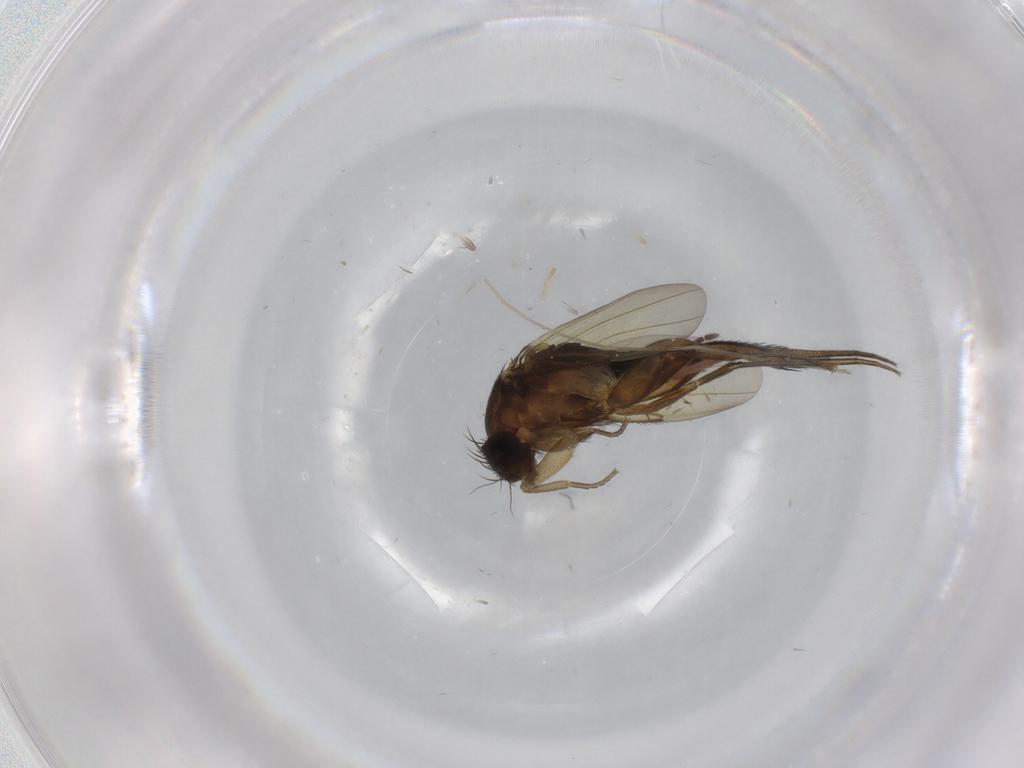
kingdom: Animalia
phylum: Arthropoda
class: Insecta
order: Diptera
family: Phoridae
